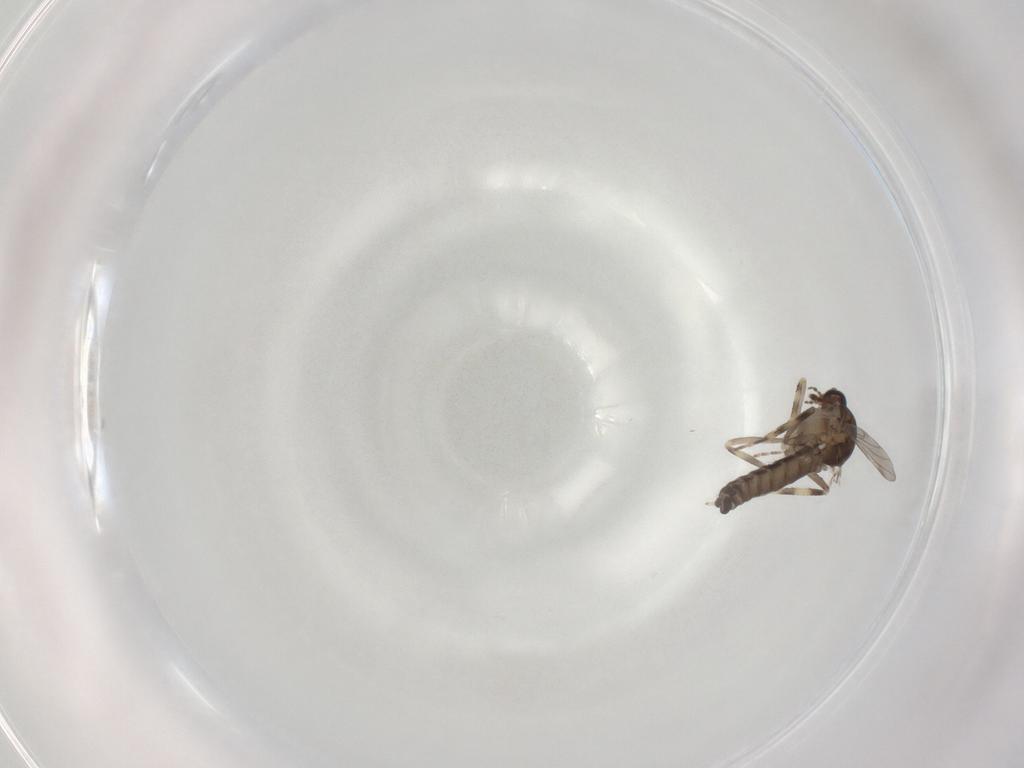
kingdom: Animalia
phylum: Arthropoda
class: Insecta
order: Diptera
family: Ceratopogonidae
